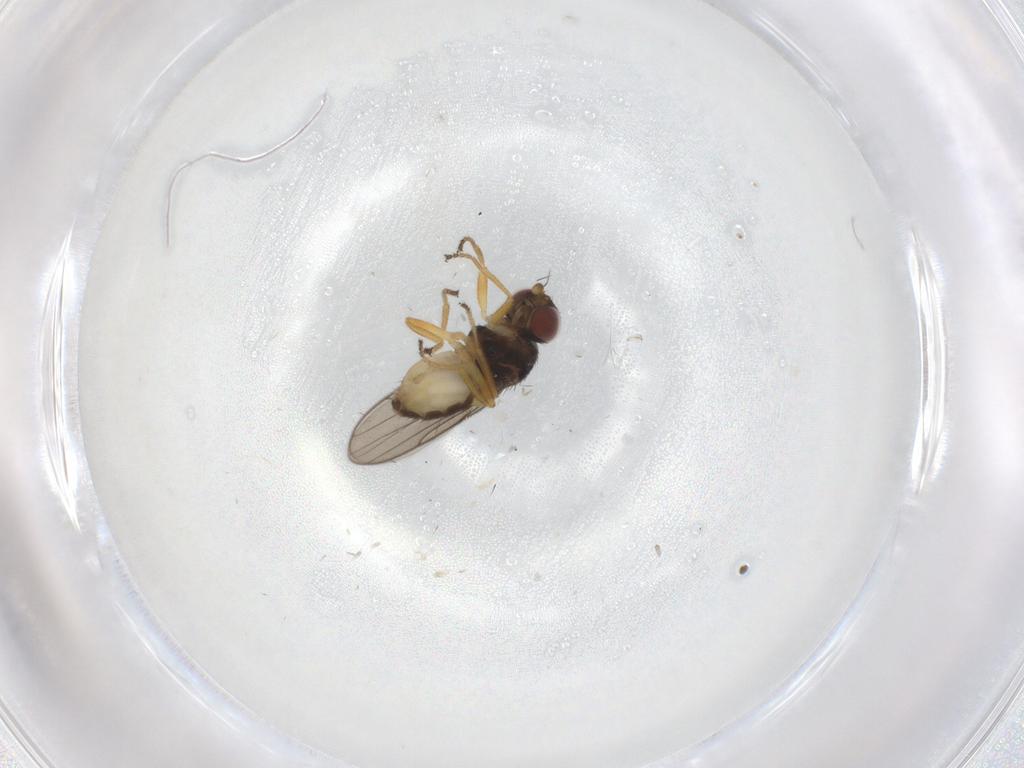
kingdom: Animalia
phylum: Arthropoda
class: Insecta
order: Diptera
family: Chloropidae
